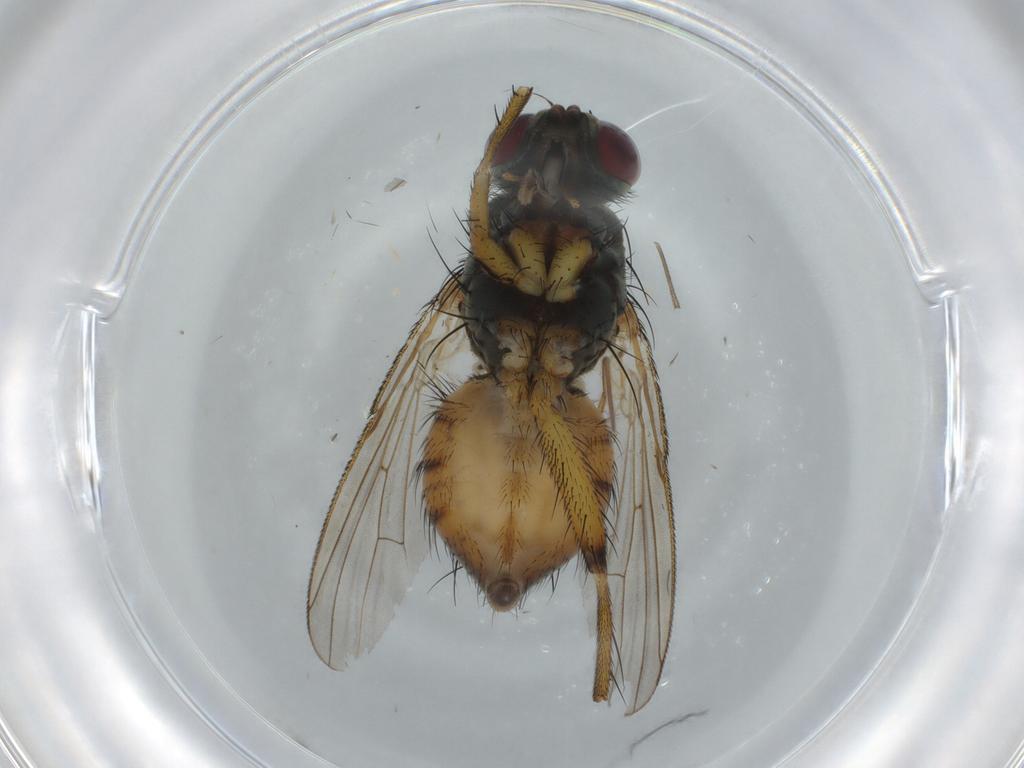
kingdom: Animalia
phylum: Arthropoda
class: Insecta
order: Diptera
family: Muscidae
